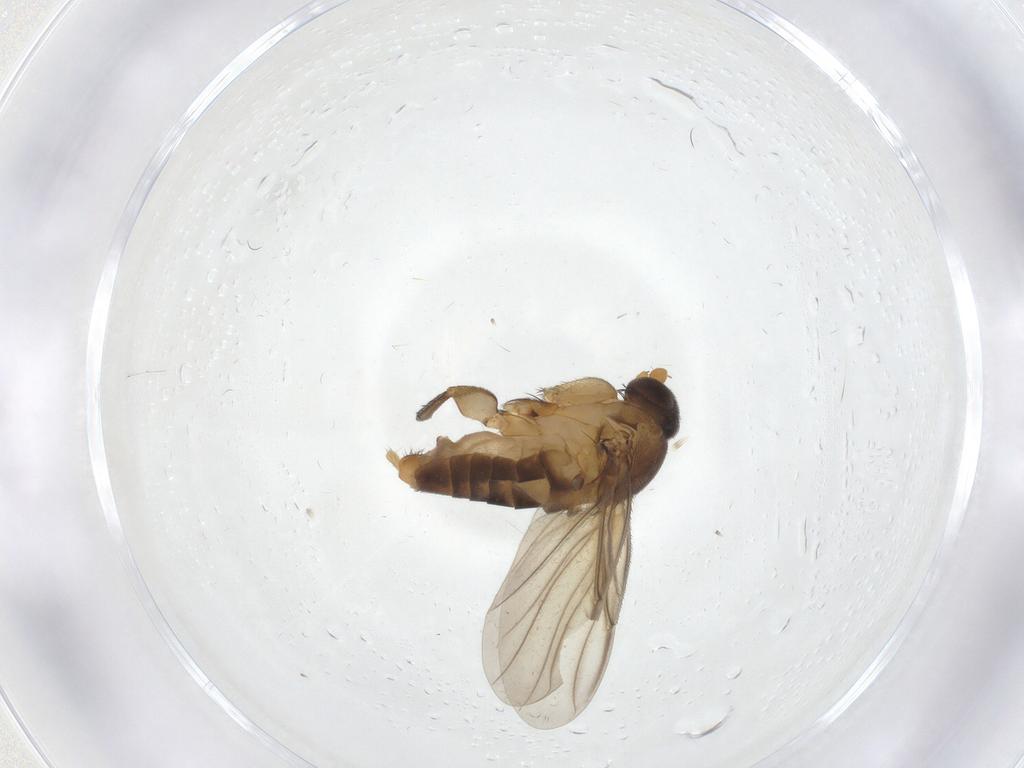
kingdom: Animalia
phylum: Arthropoda
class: Insecta
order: Diptera
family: Phoridae
